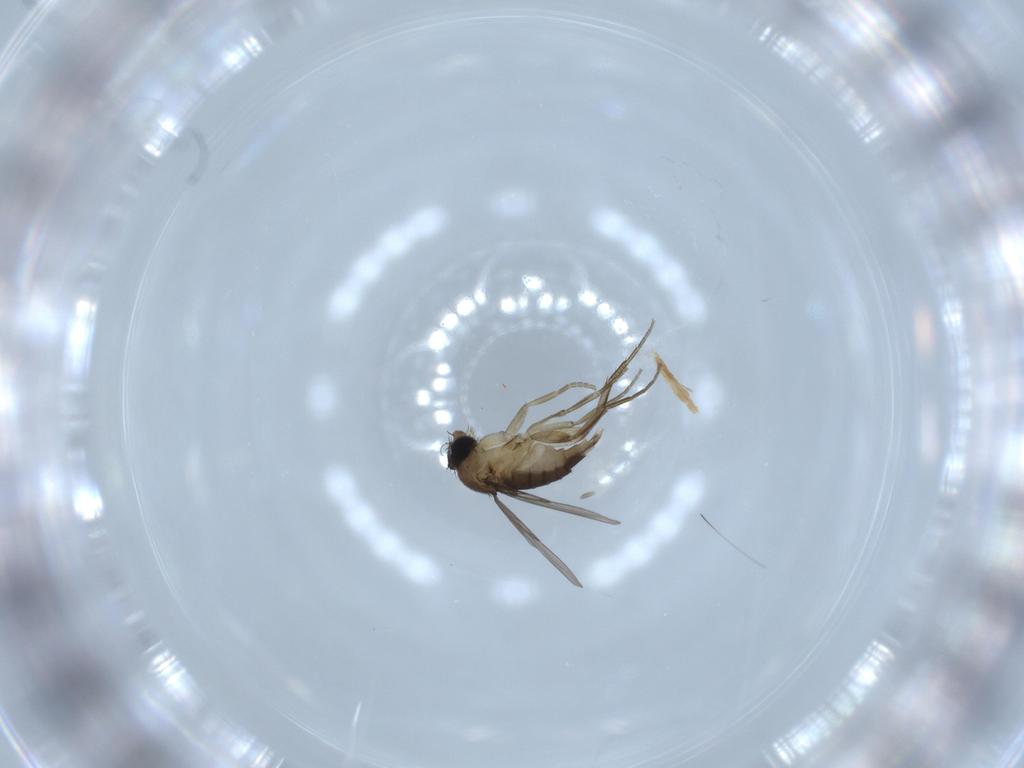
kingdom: Animalia
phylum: Arthropoda
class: Insecta
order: Diptera
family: Phoridae
